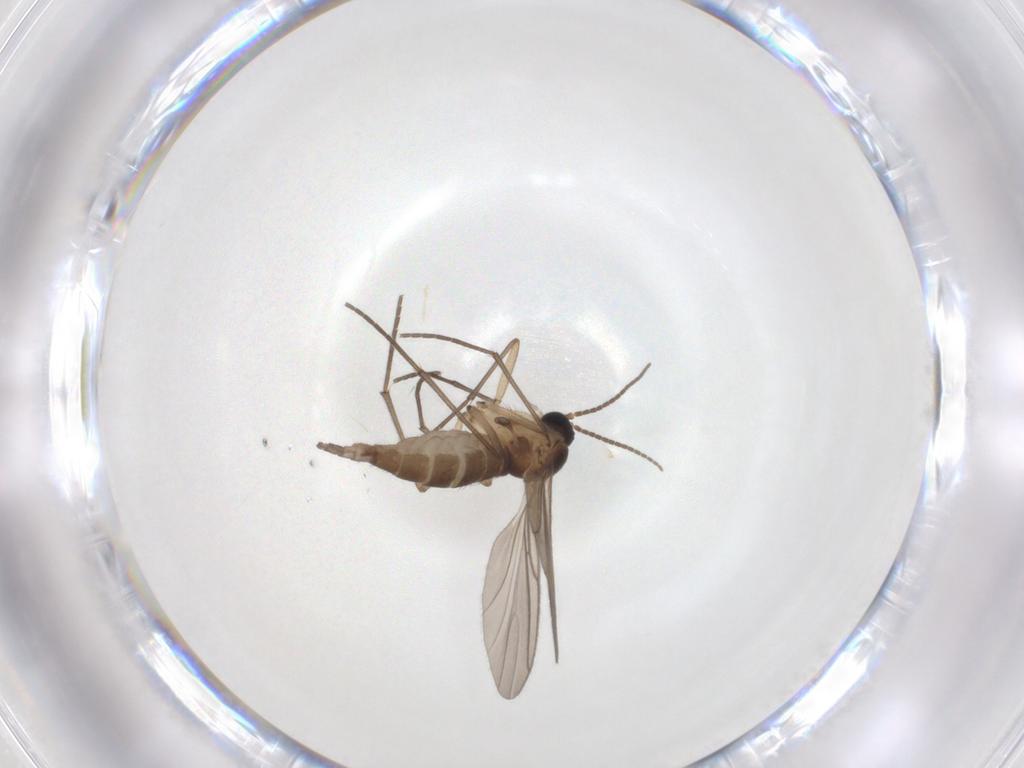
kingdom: Animalia
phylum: Arthropoda
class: Insecta
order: Diptera
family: Sciaridae
